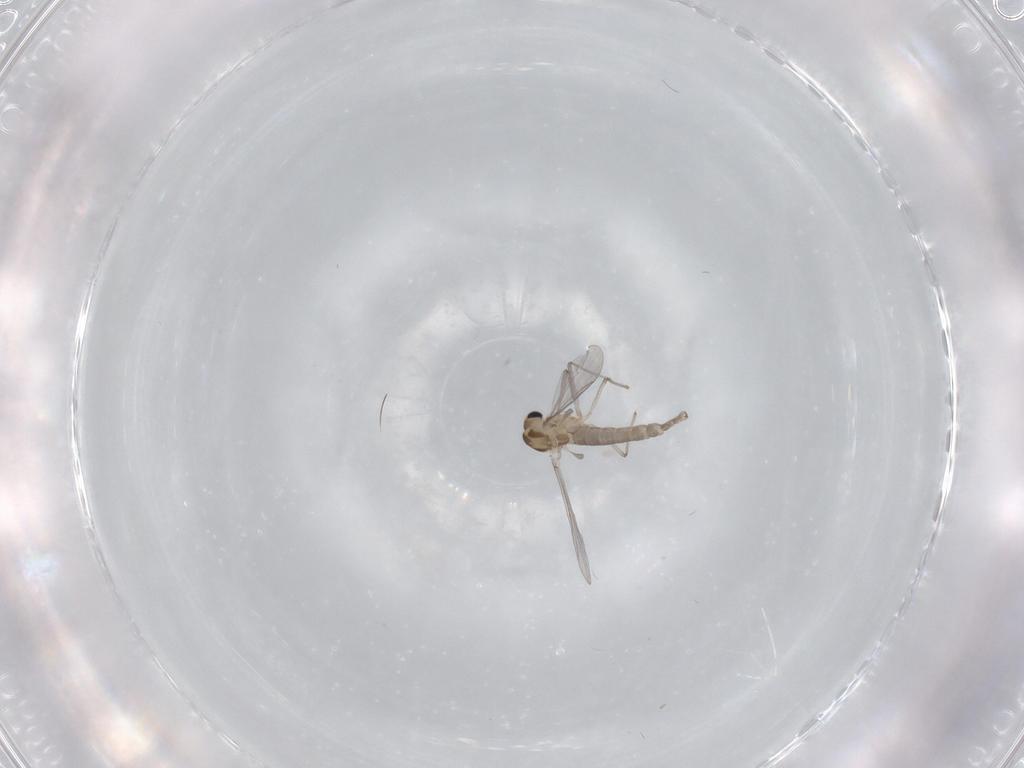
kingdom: Animalia
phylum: Arthropoda
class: Insecta
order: Diptera
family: Chironomidae
